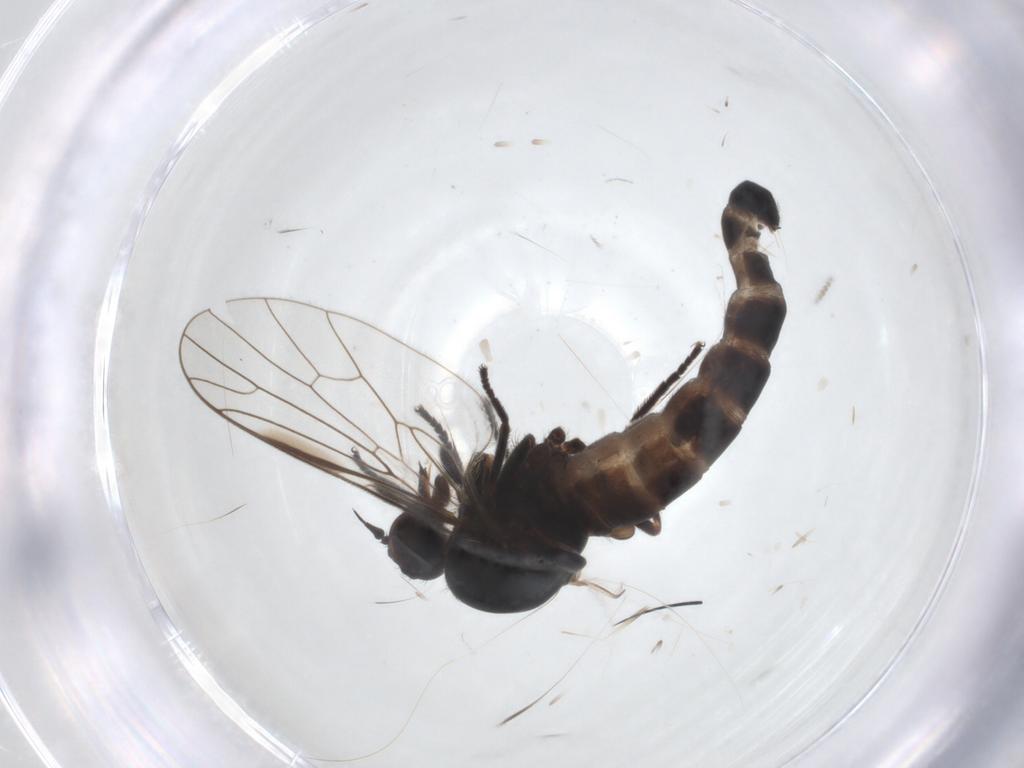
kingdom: Animalia
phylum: Arthropoda
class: Insecta
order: Diptera
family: Empididae
